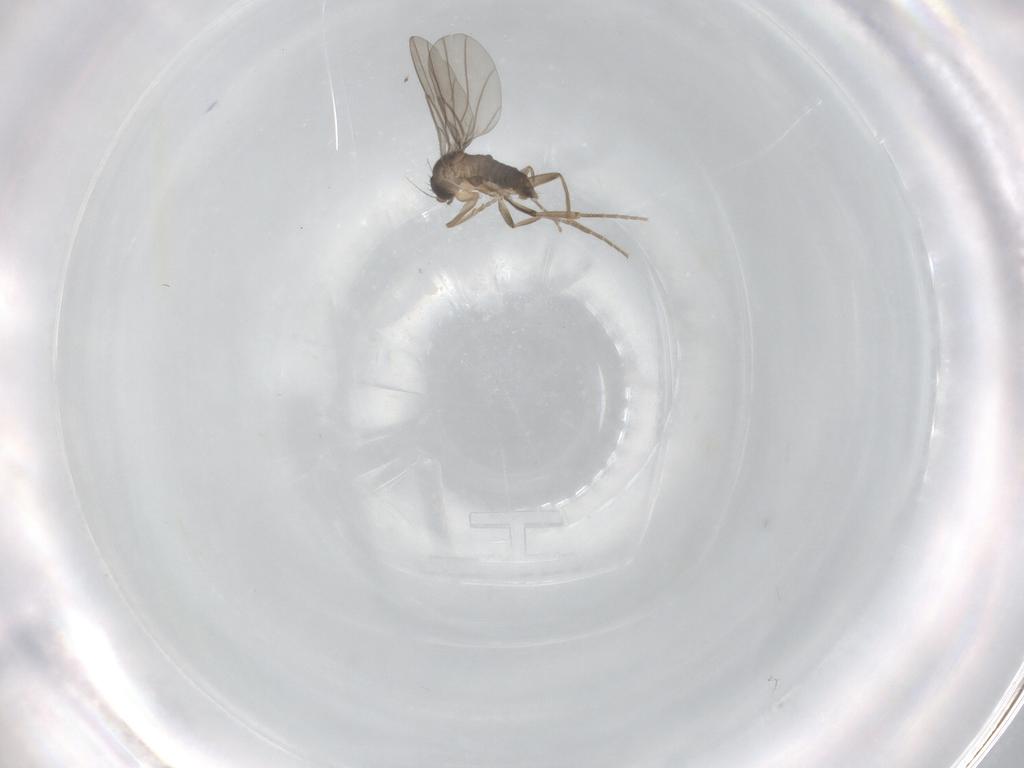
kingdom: Animalia
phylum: Arthropoda
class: Insecta
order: Diptera
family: Phoridae
